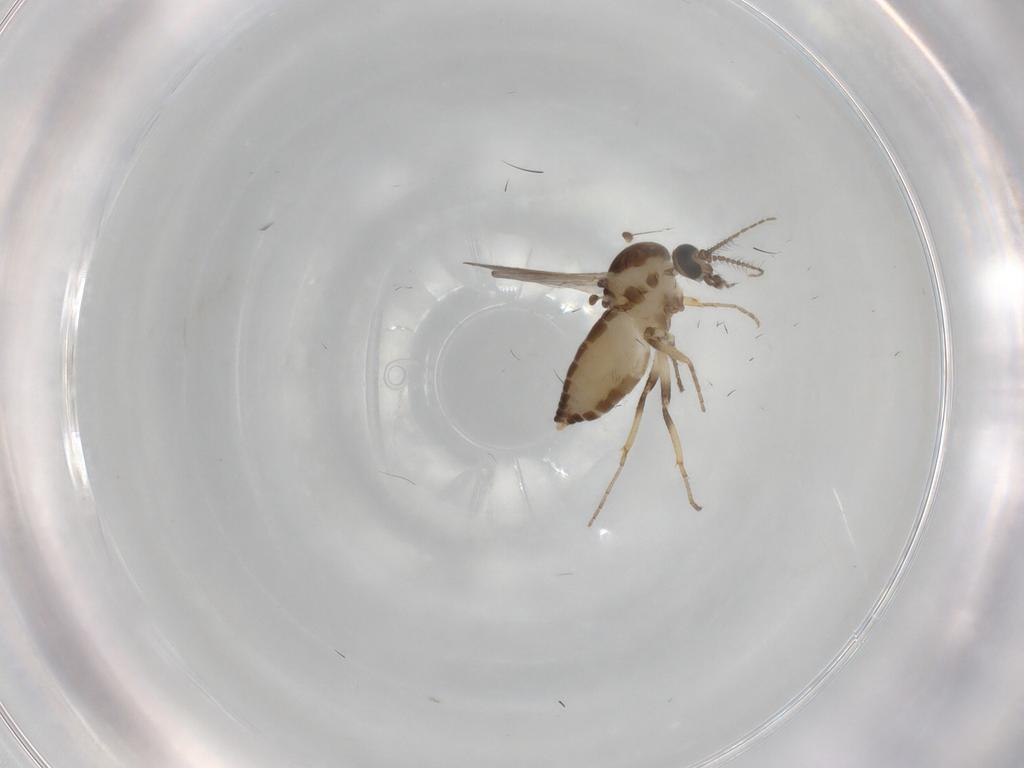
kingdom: Animalia
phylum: Arthropoda
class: Insecta
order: Diptera
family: Ceratopogonidae
